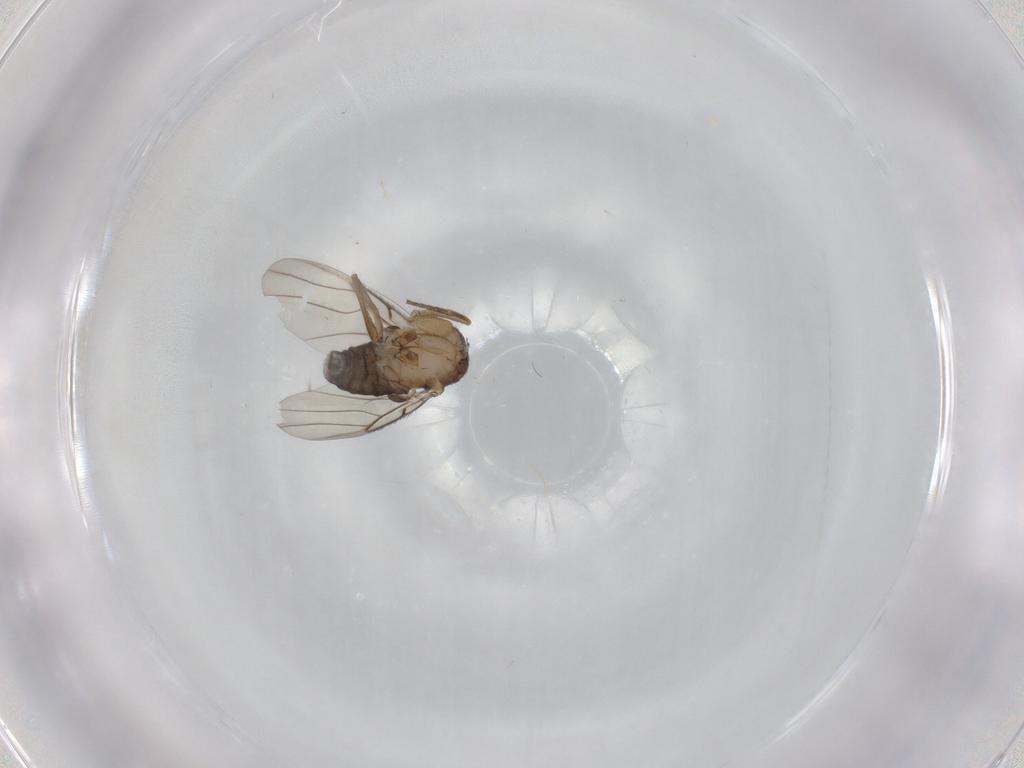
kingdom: Animalia
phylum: Arthropoda
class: Insecta
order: Diptera
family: Phoridae
